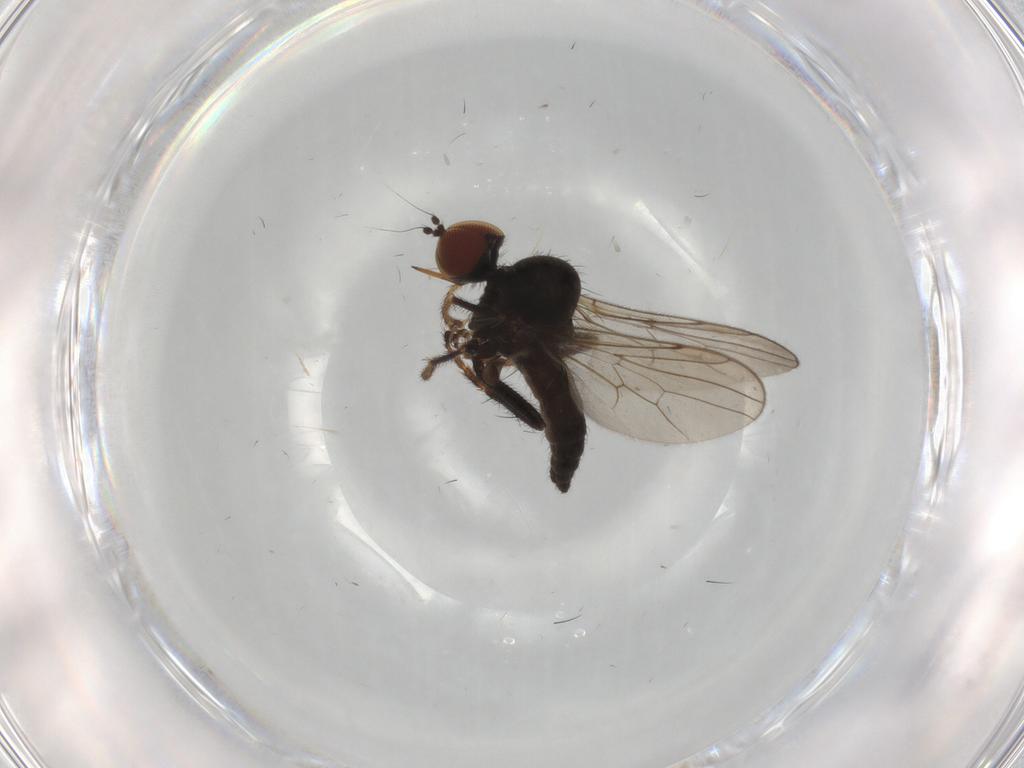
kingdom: Animalia
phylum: Arthropoda
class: Insecta
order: Diptera
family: Hybotidae
